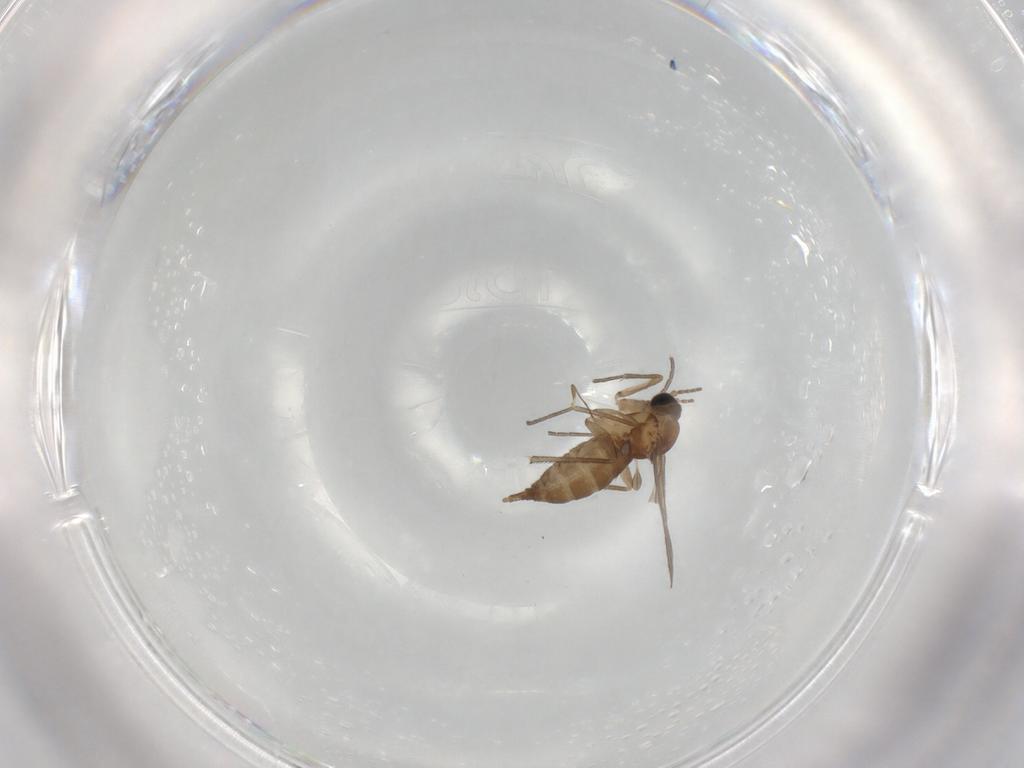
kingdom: Animalia
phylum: Arthropoda
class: Insecta
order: Diptera
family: Sciaridae
